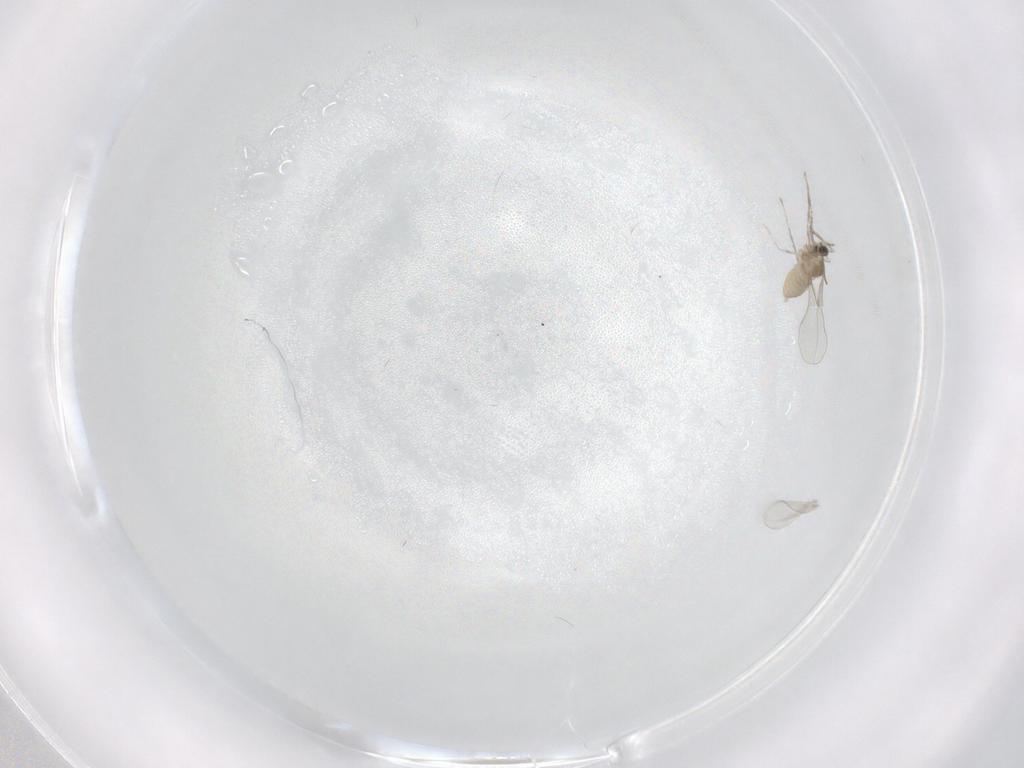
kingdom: Animalia
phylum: Arthropoda
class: Insecta
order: Diptera
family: Cecidomyiidae
